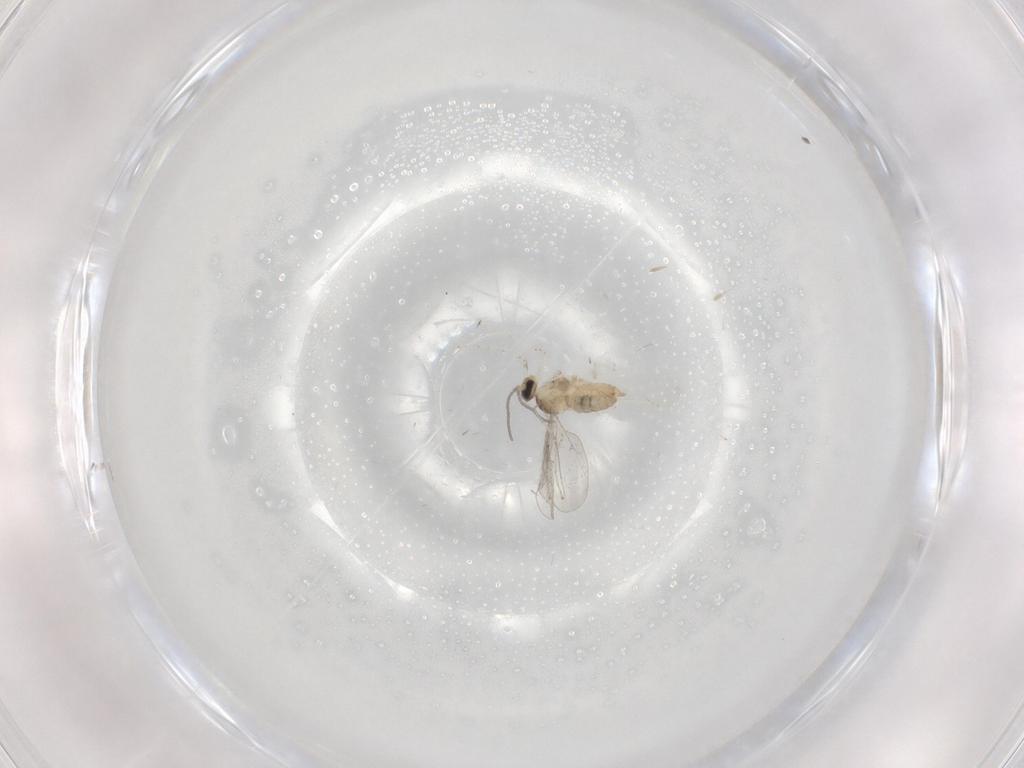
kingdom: Animalia
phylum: Arthropoda
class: Insecta
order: Diptera
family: Cecidomyiidae
